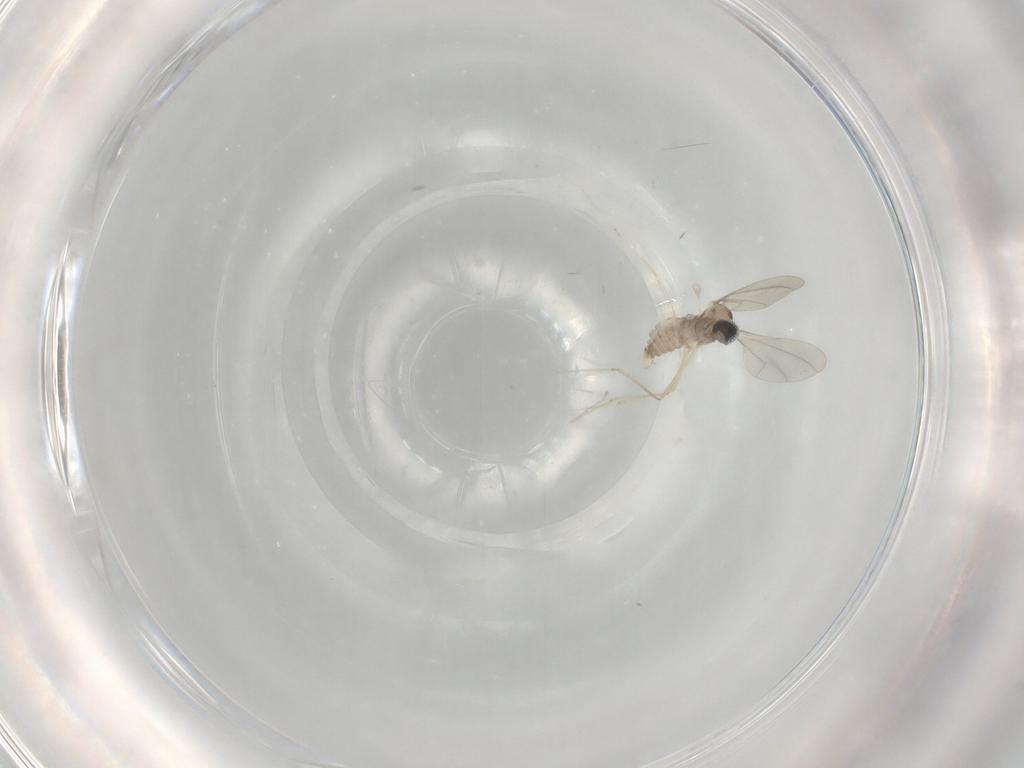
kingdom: Animalia
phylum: Arthropoda
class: Insecta
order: Diptera
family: Cecidomyiidae
